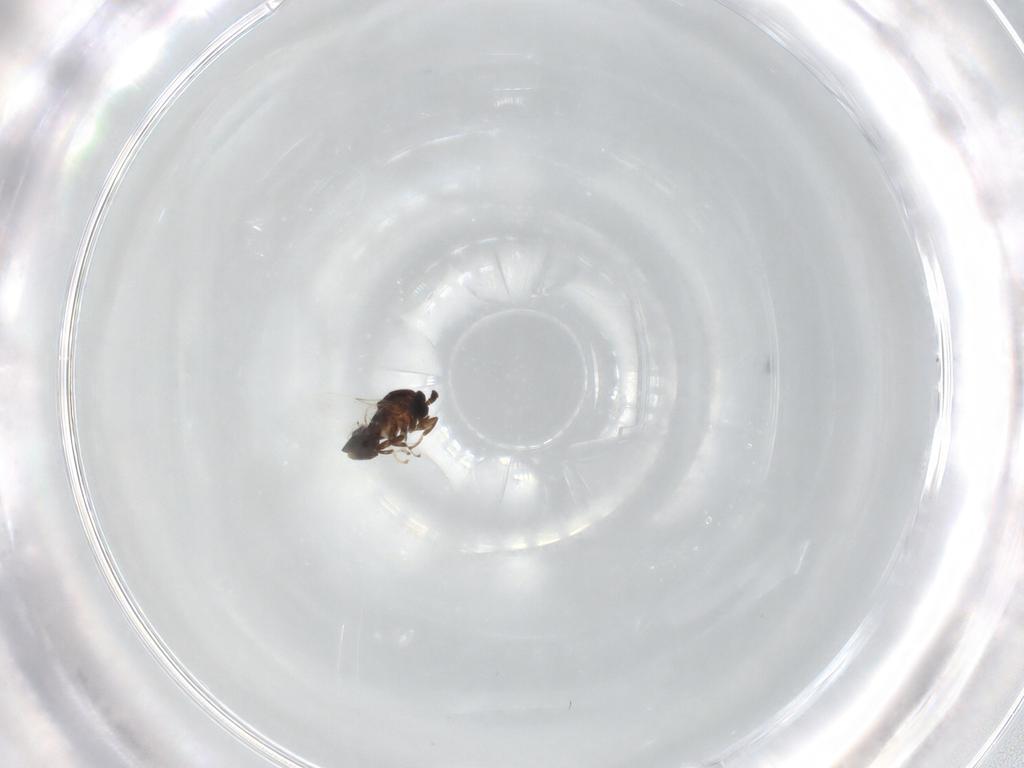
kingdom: Animalia
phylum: Arthropoda
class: Insecta
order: Diptera
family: Scatopsidae
